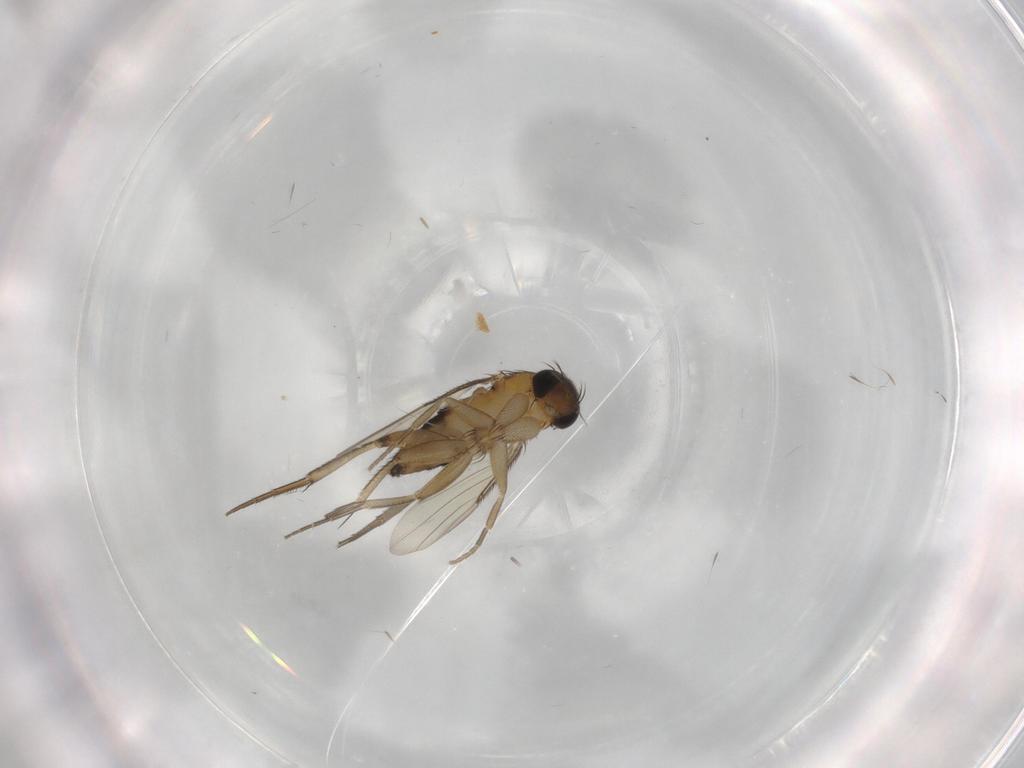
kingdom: Animalia
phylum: Arthropoda
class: Insecta
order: Diptera
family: Phoridae
